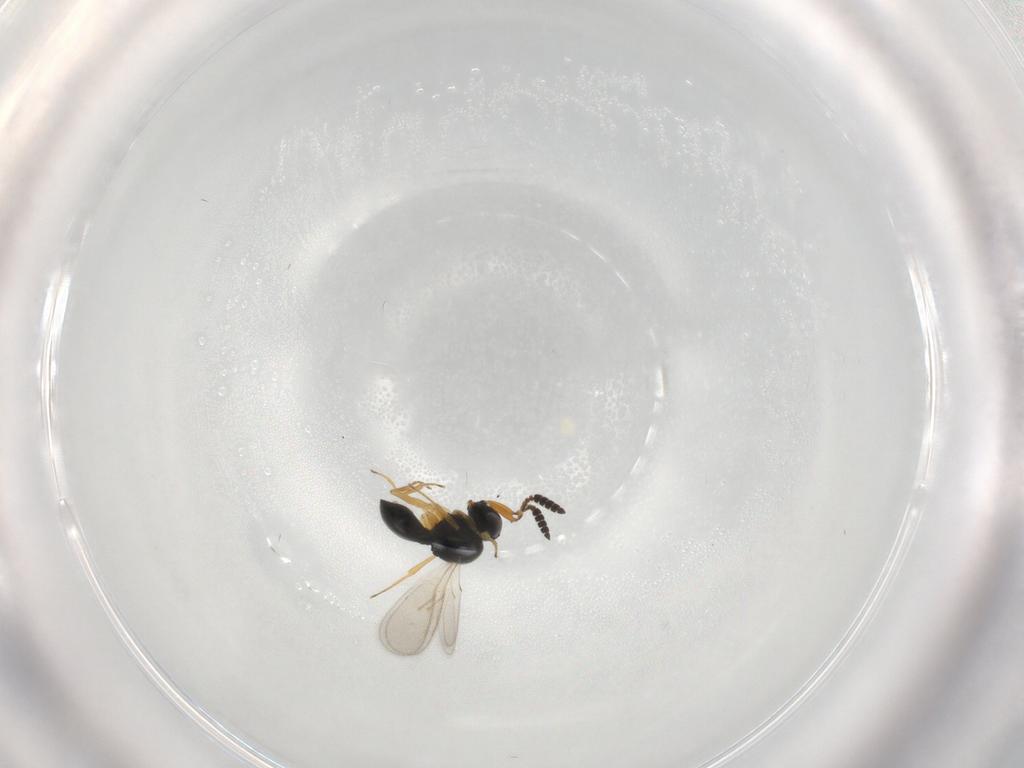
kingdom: Animalia
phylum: Arthropoda
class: Insecta
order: Hymenoptera
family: Scelionidae
